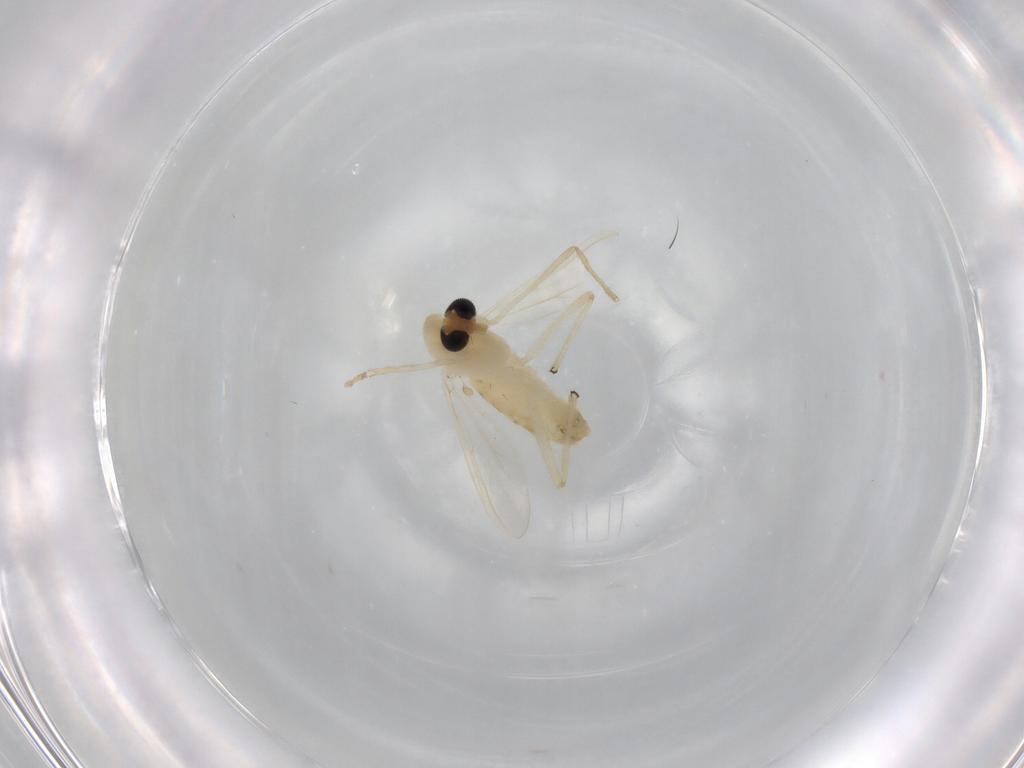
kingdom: Animalia
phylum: Arthropoda
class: Insecta
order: Diptera
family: Chironomidae
